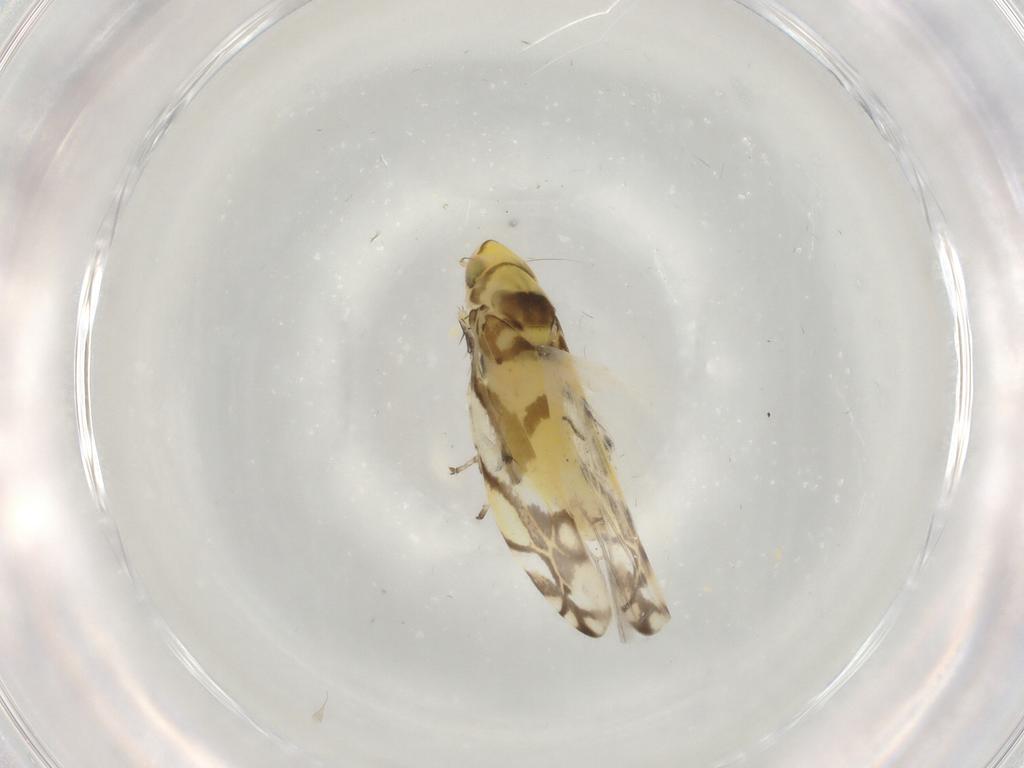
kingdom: Animalia
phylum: Arthropoda
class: Insecta
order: Hemiptera
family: Cicadellidae
